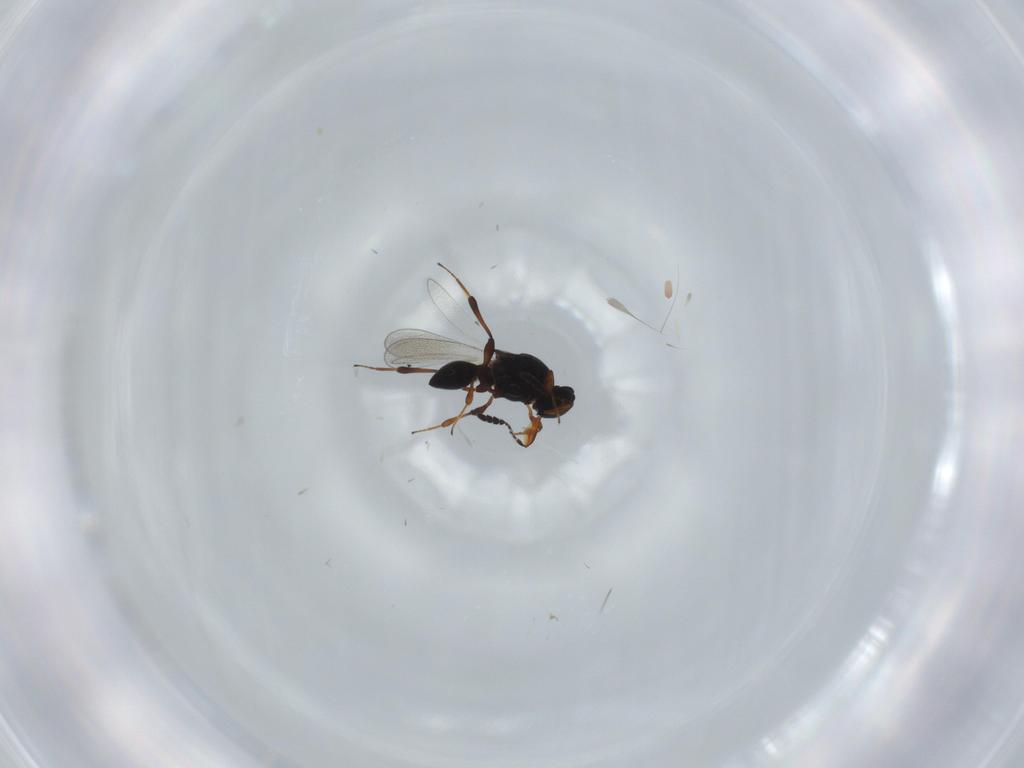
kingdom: Animalia
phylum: Arthropoda
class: Insecta
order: Hymenoptera
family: Platygastridae
